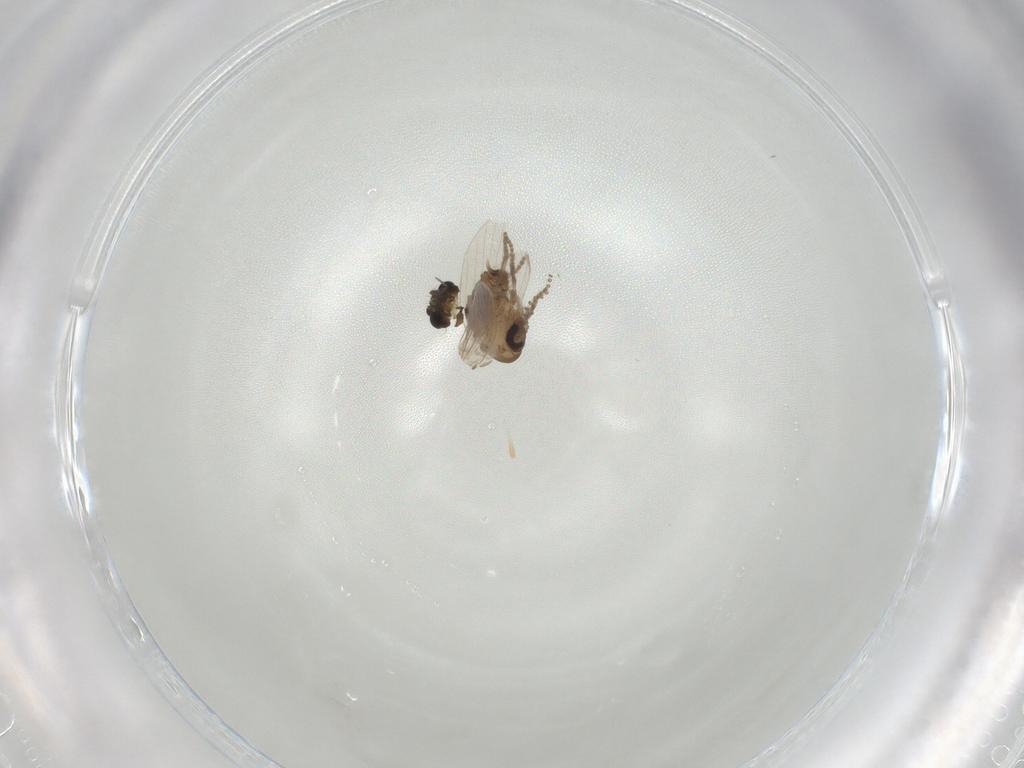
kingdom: Animalia
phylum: Arthropoda
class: Insecta
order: Diptera
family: Chironomidae
